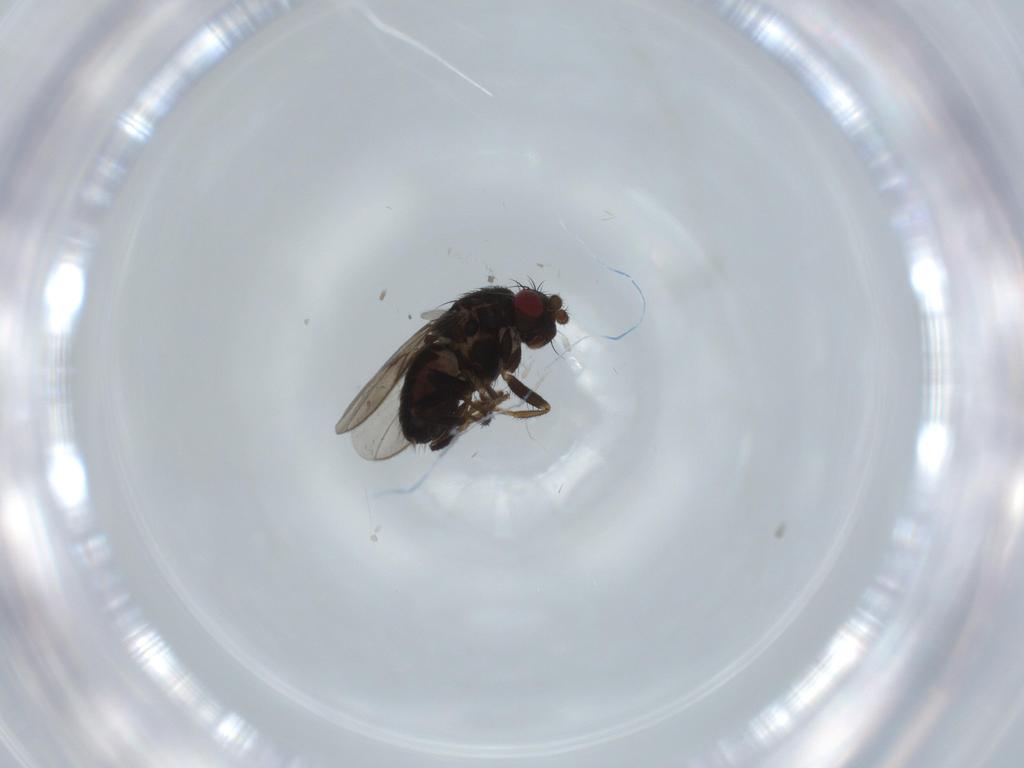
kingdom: Animalia
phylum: Arthropoda
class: Insecta
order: Diptera
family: Sphaeroceridae
